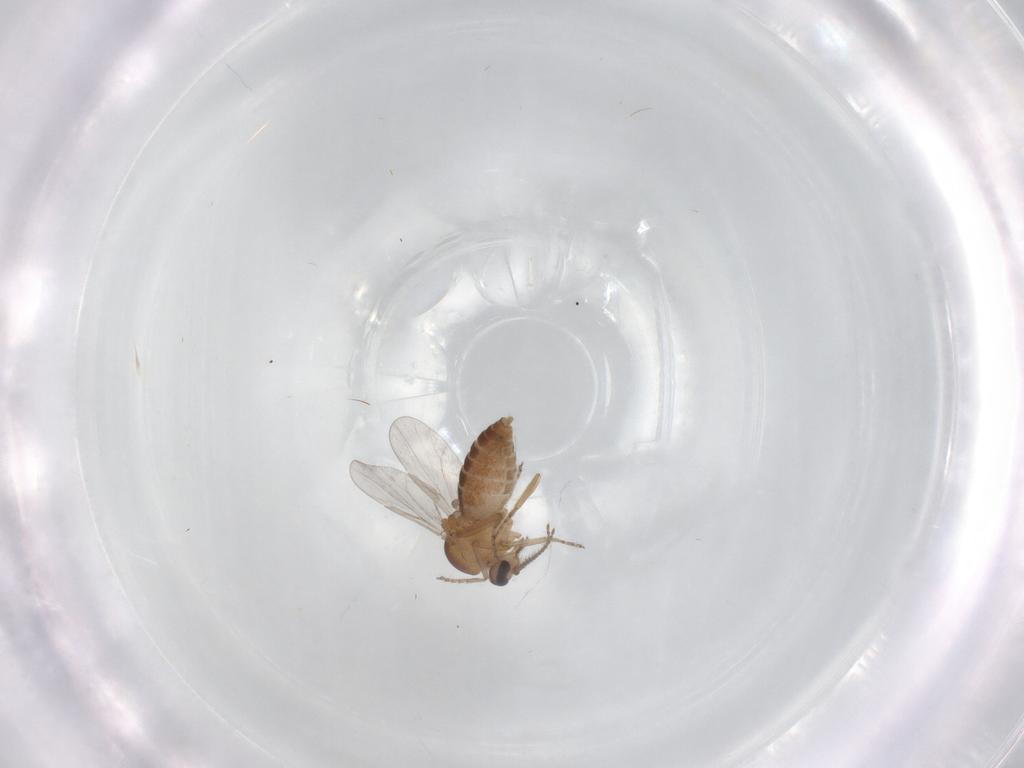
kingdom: Animalia
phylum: Arthropoda
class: Insecta
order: Diptera
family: Ceratopogonidae
